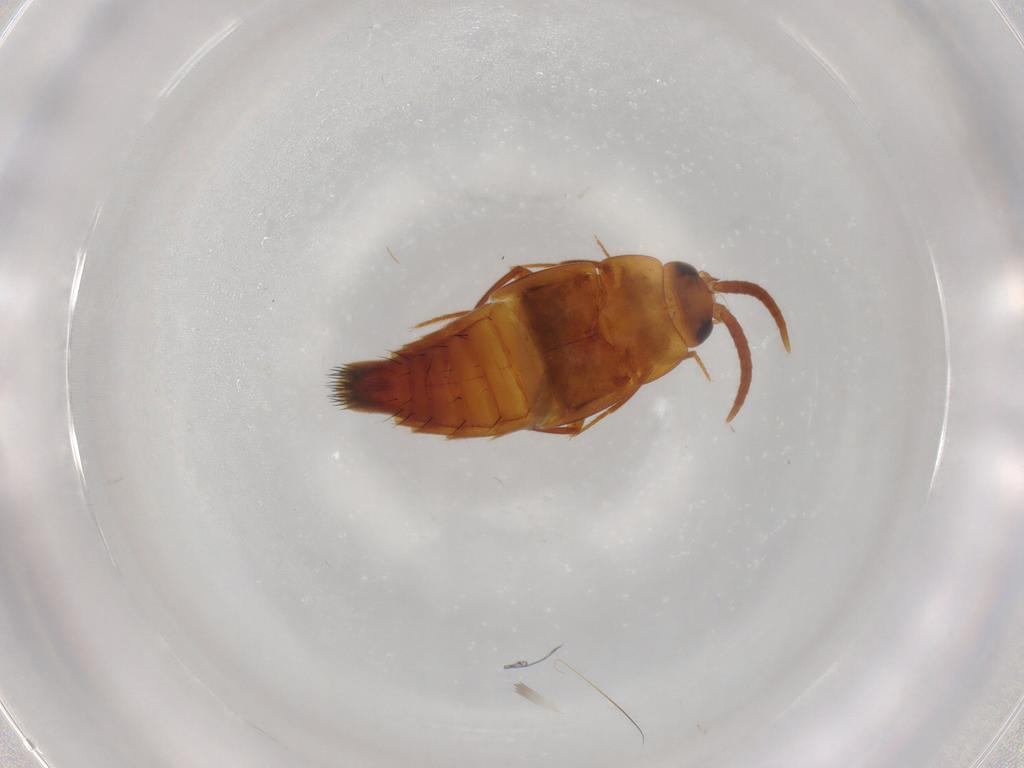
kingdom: Animalia
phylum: Arthropoda
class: Insecta
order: Coleoptera
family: Staphylinidae
